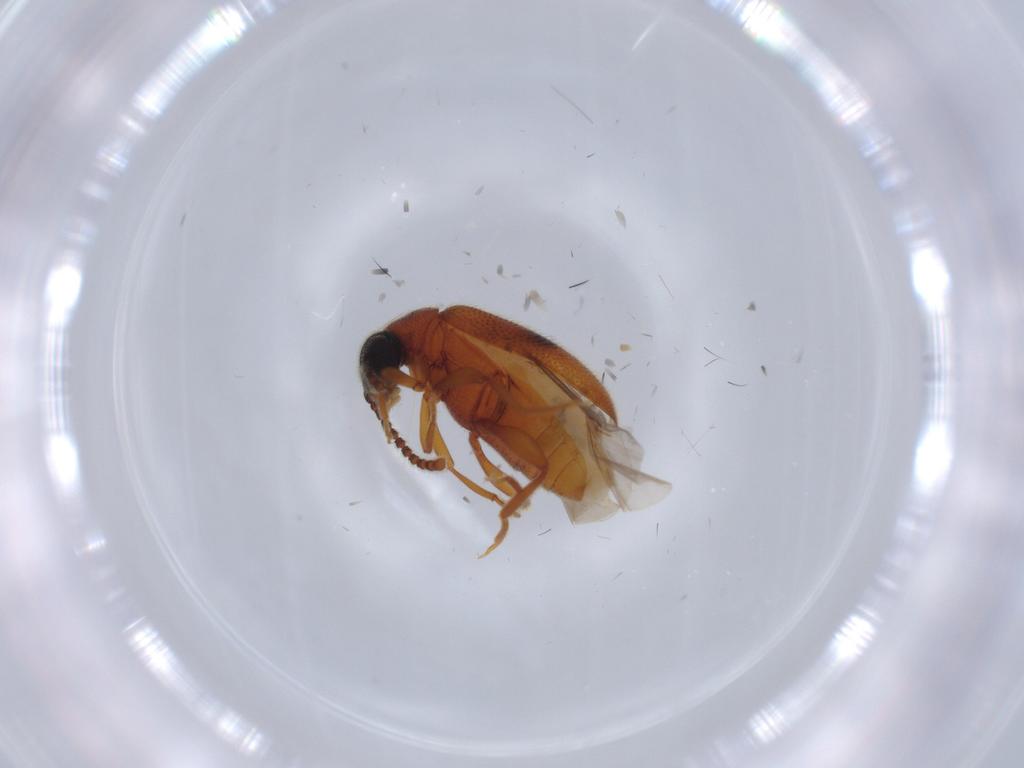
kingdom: Animalia
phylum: Arthropoda
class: Insecta
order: Coleoptera
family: Aderidae
